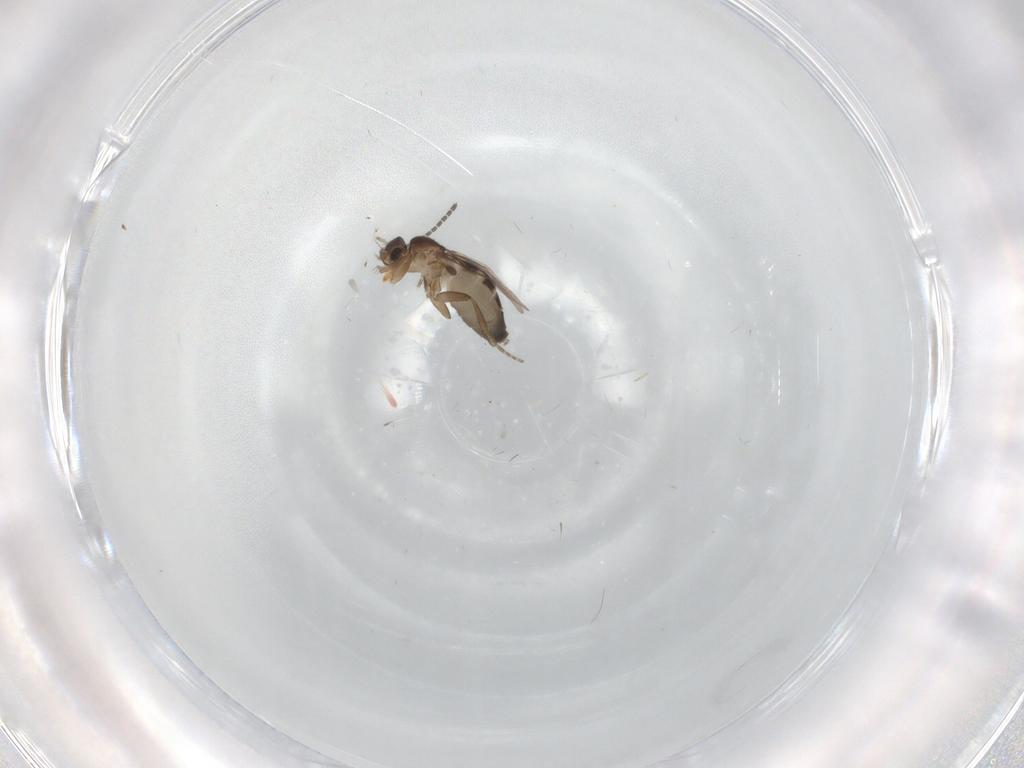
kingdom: Animalia
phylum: Arthropoda
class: Insecta
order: Diptera
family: Phoridae
